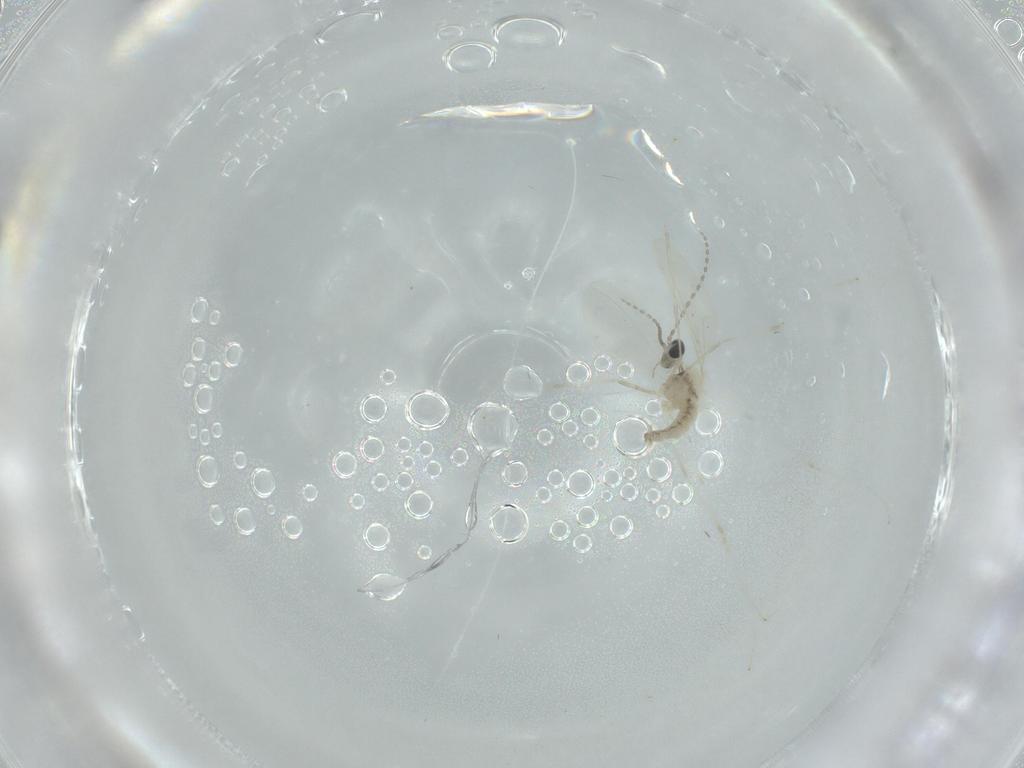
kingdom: Animalia
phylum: Arthropoda
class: Insecta
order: Diptera
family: Cecidomyiidae
